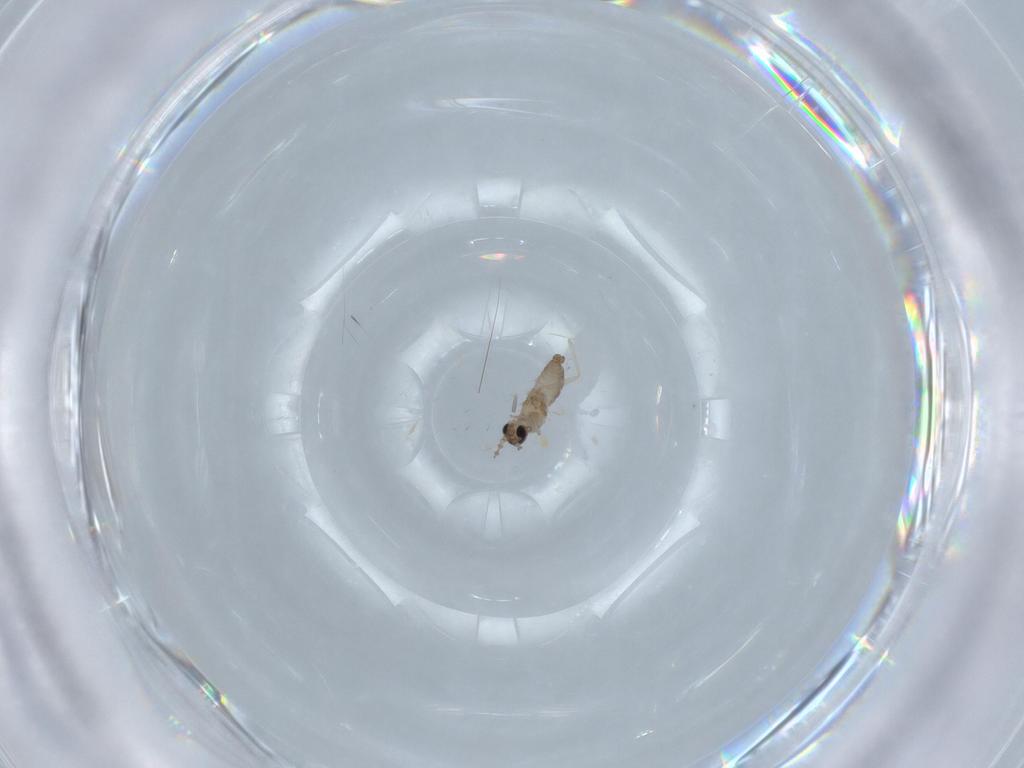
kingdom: Animalia
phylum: Arthropoda
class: Insecta
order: Diptera
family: Cecidomyiidae
